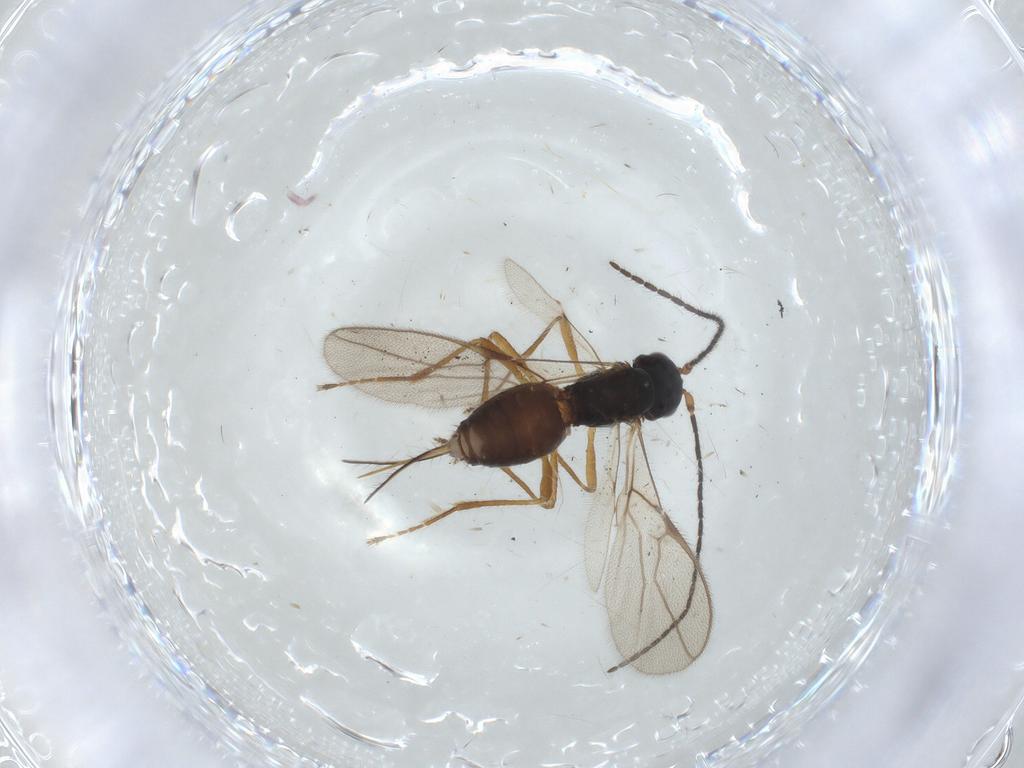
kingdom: Animalia
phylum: Arthropoda
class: Insecta
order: Hymenoptera
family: Braconidae
